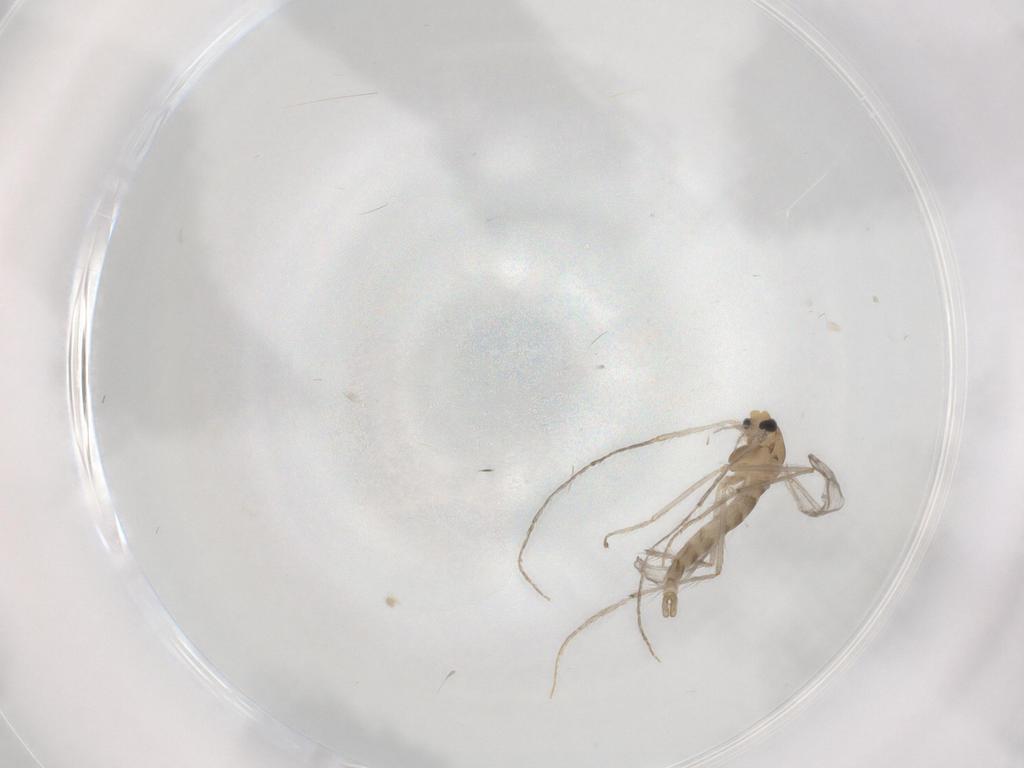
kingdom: Animalia
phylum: Arthropoda
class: Insecta
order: Diptera
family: Chironomidae
